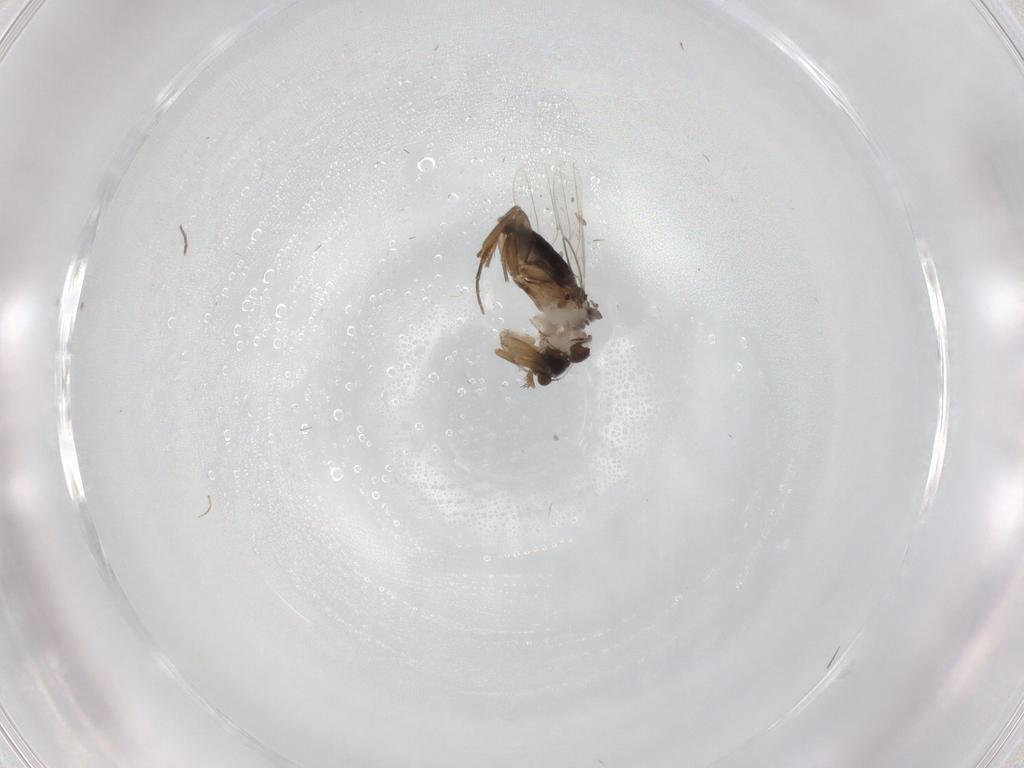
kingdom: Animalia
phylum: Arthropoda
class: Insecta
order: Diptera
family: Phoridae
